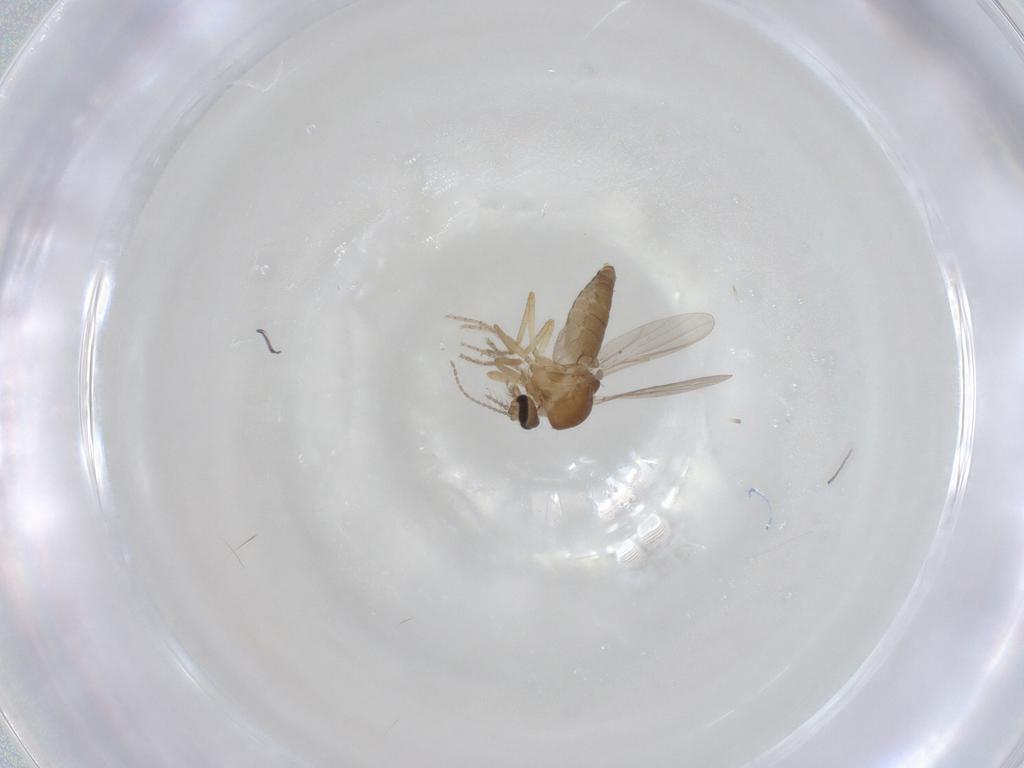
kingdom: Animalia
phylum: Arthropoda
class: Insecta
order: Diptera
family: Ceratopogonidae
